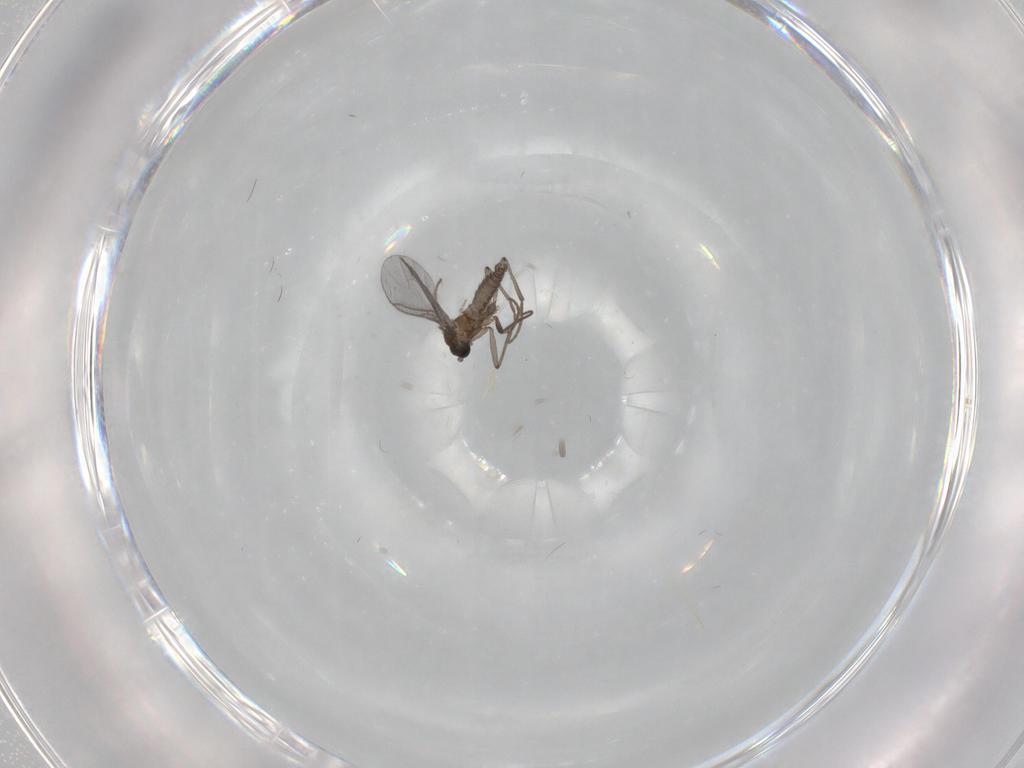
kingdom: Animalia
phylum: Arthropoda
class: Insecta
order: Diptera
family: Sciaridae
